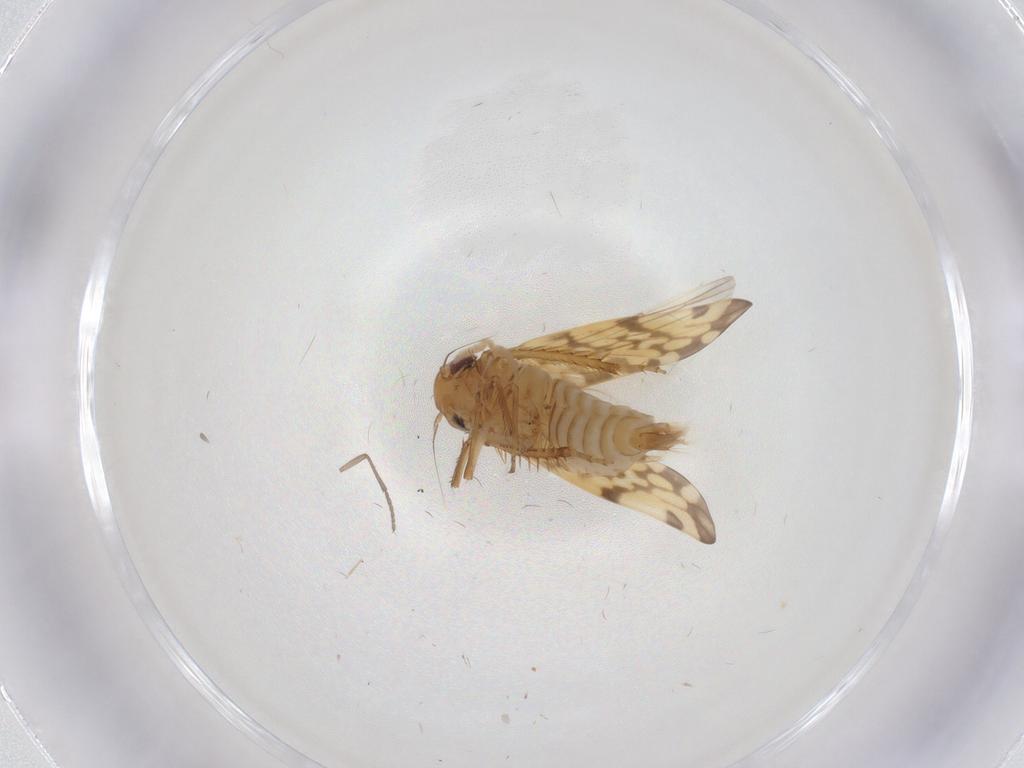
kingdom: Animalia
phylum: Arthropoda
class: Insecta
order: Hemiptera
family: Cicadellidae
